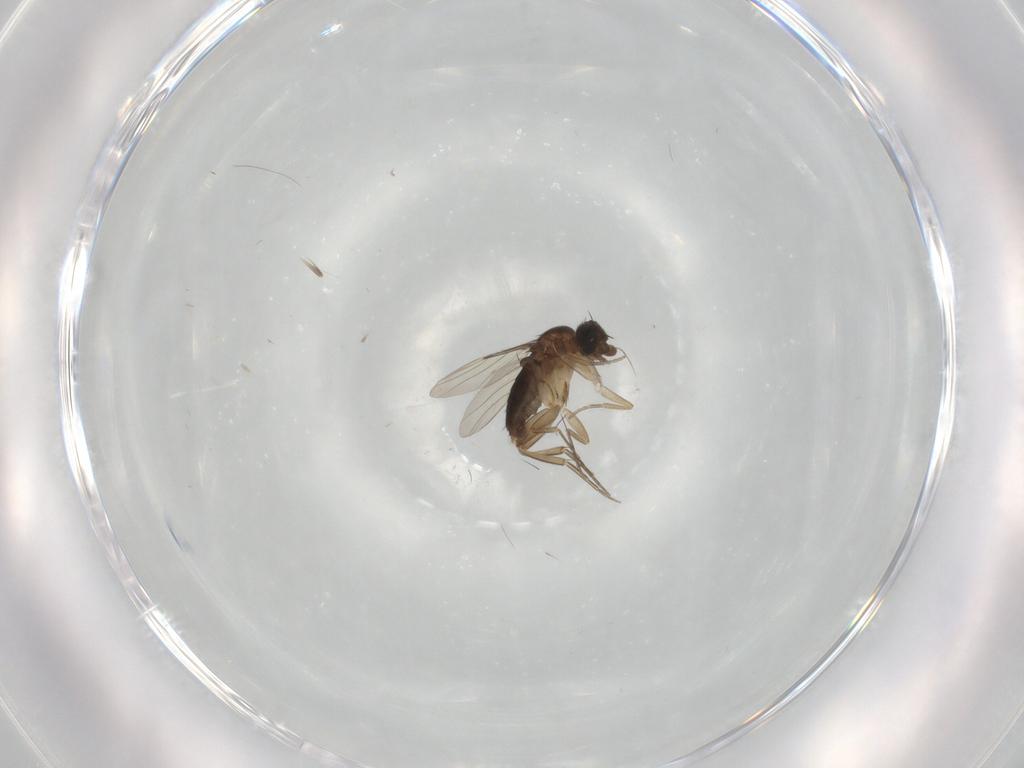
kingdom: Animalia
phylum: Arthropoda
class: Insecta
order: Diptera
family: Phoridae
